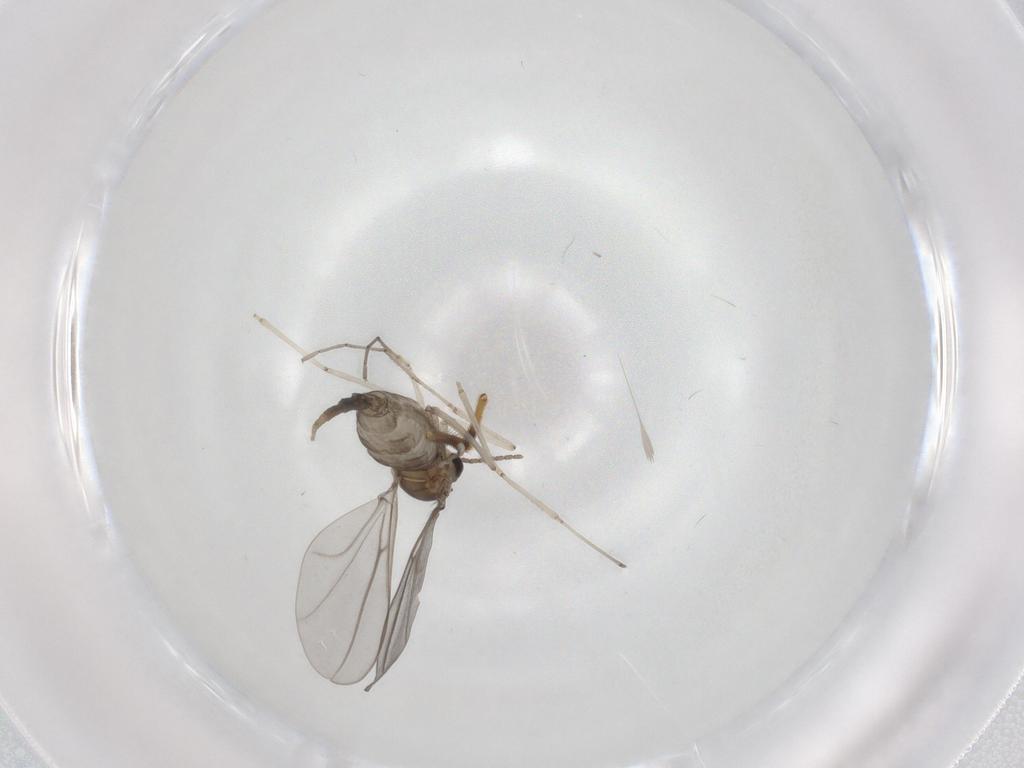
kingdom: Animalia
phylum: Arthropoda
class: Insecta
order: Diptera
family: Cecidomyiidae
